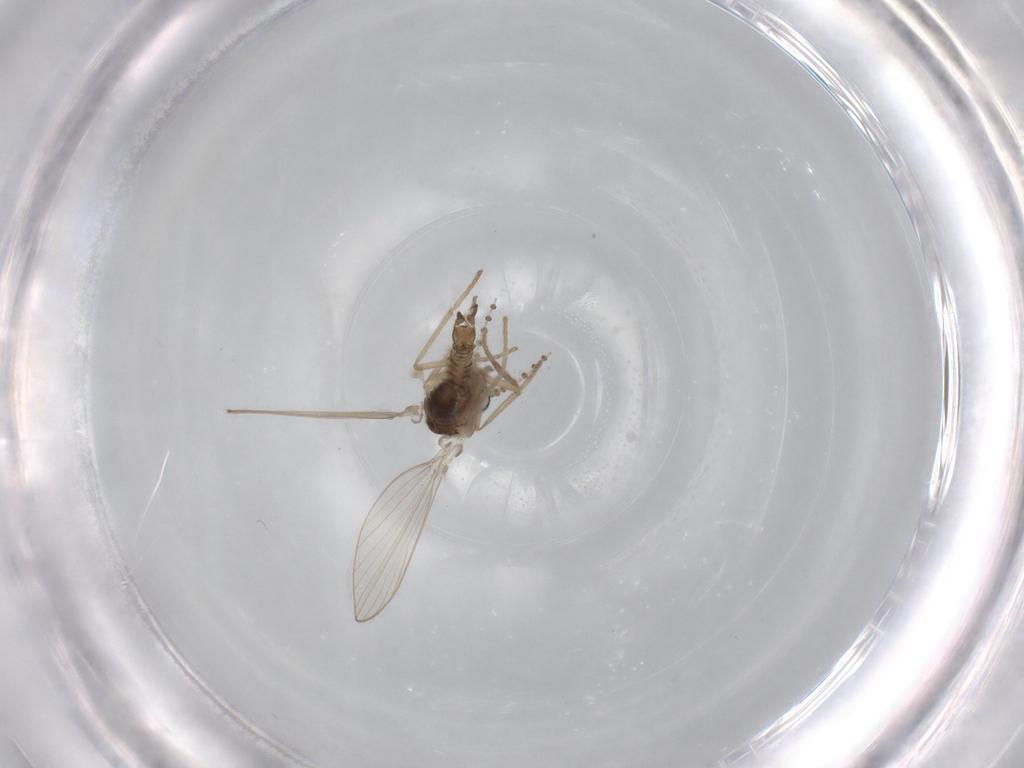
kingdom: Animalia
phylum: Arthropoda
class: Insecta
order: Diptera
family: Psychodidae
